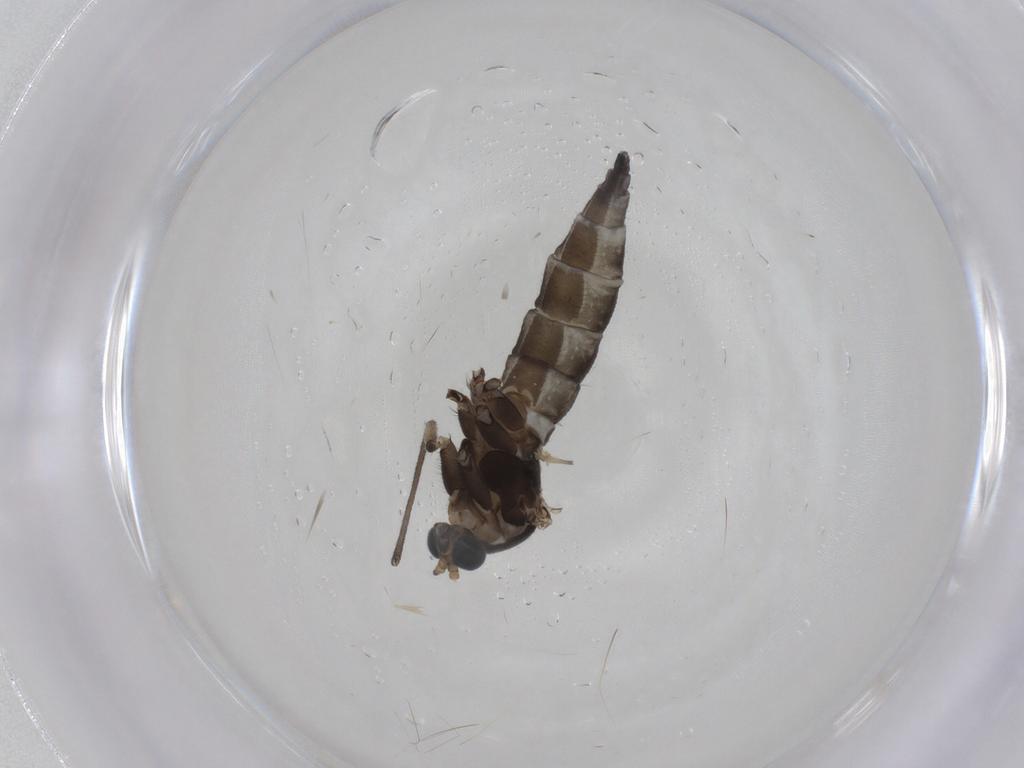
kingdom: Animalia
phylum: Arthropoda
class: Insecta
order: Diptera
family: Sciaridae
